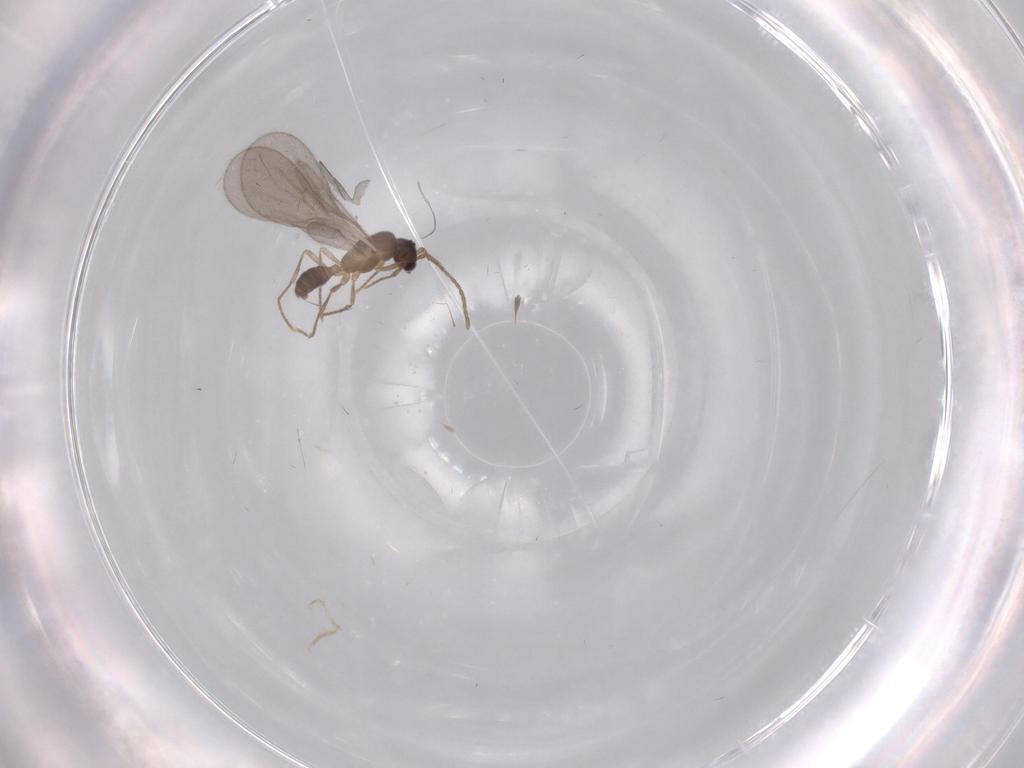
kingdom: Animalia
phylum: Arthropoda
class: Insecta
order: Hymenoptera
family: Formicidae
